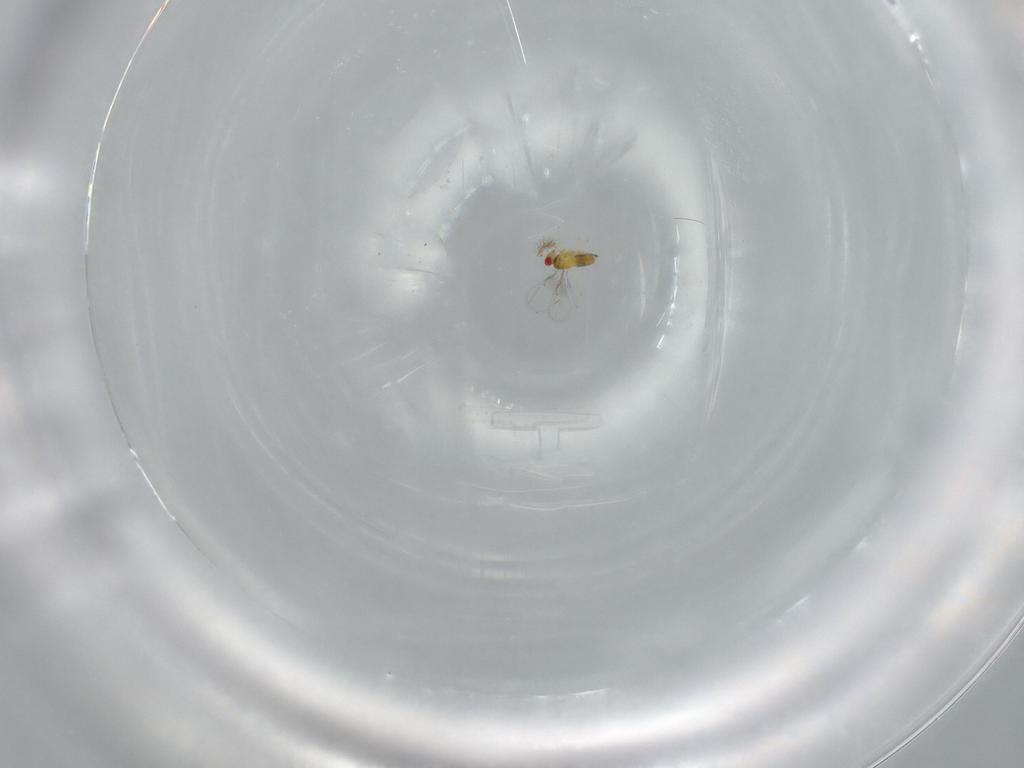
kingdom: Animalia
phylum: Arthropoda
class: Insecta
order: Hymenoptera
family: Trichogrammatidae
